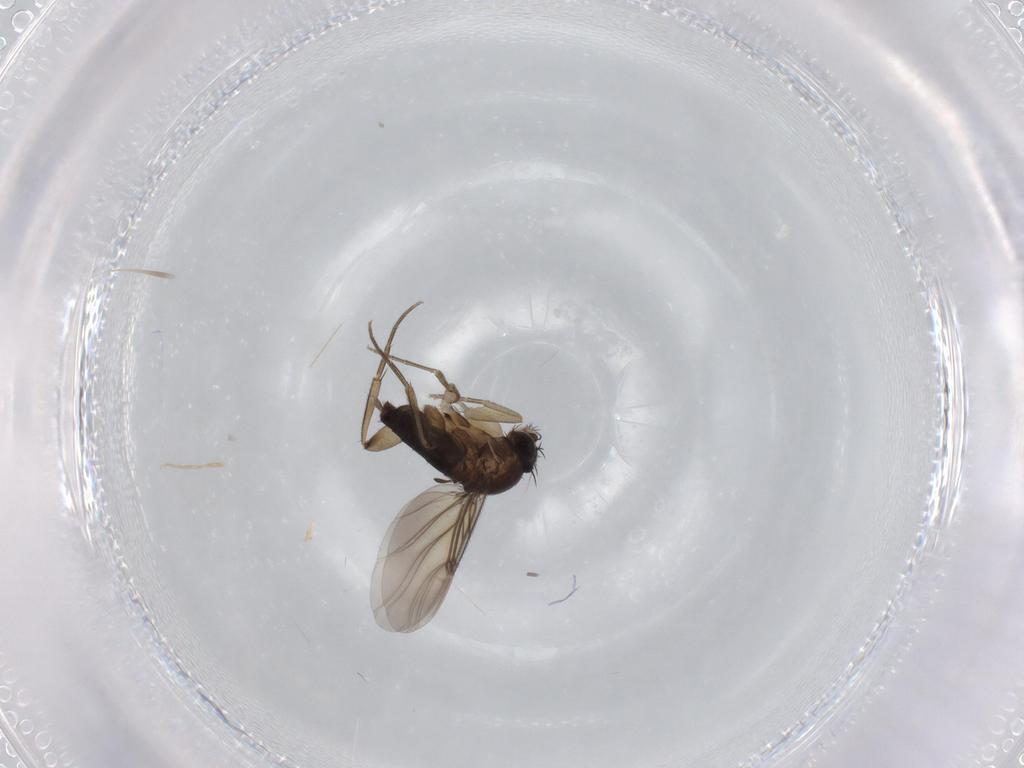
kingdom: Animalia
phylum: Arthropoda
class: Insecta
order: Diptera
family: Phoridae
